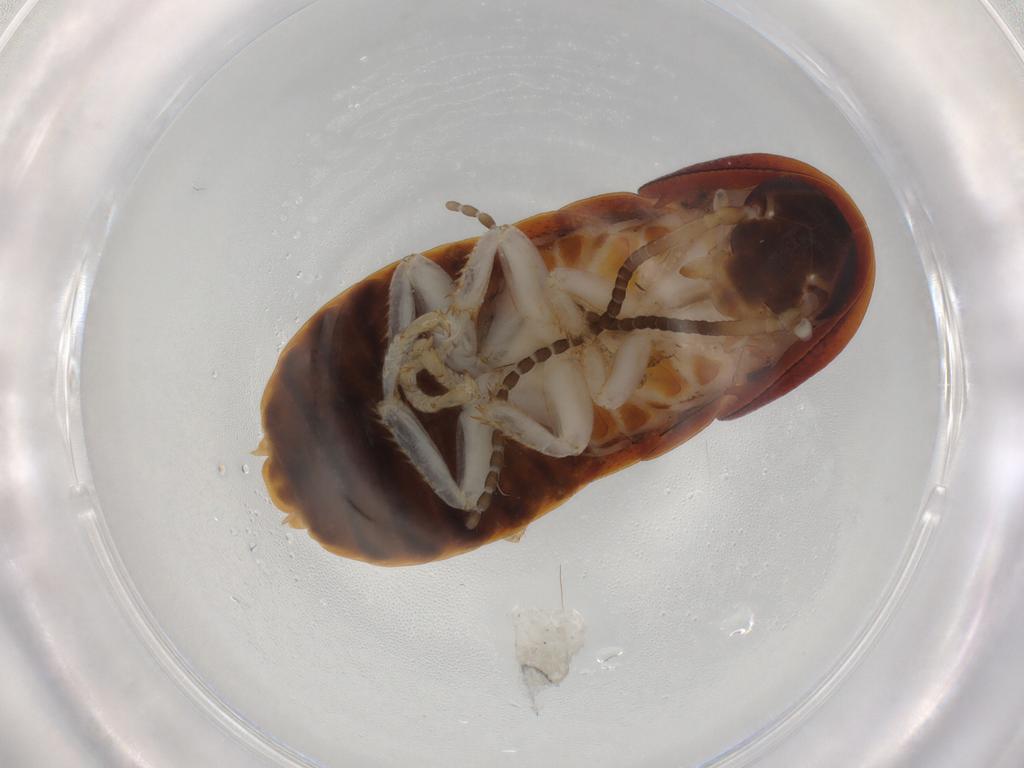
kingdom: Animalia
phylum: Arthropoda
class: Insecta
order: Blattodea
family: Blaberidae
